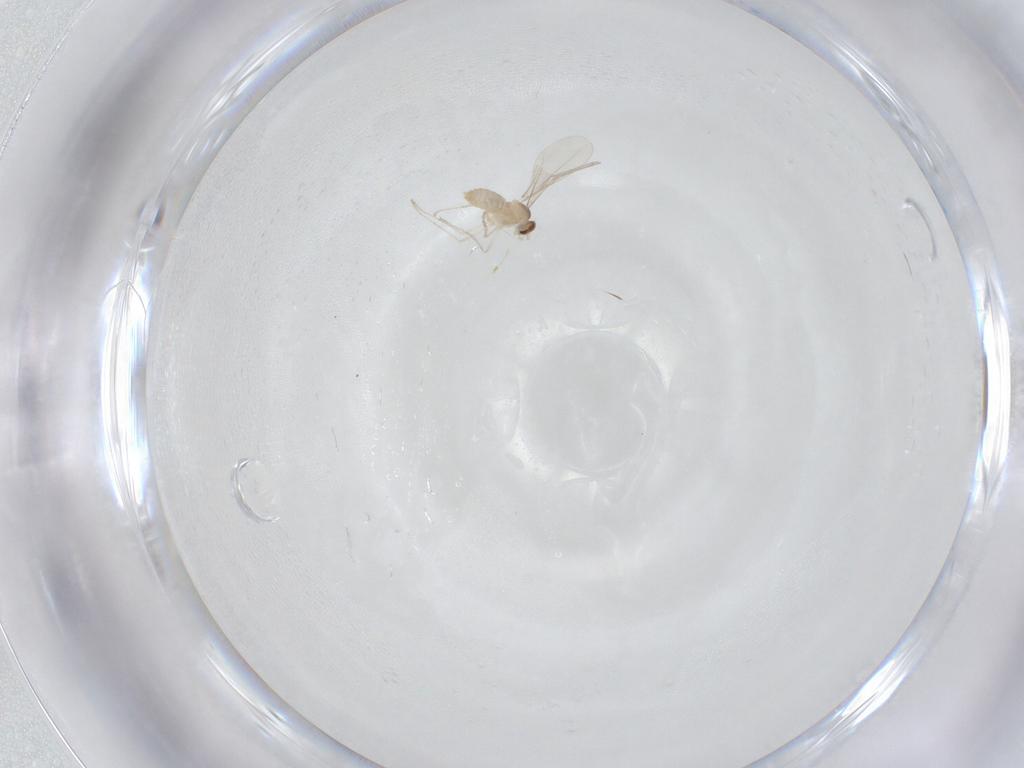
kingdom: Animalia
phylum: Arthropoda
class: Insecta
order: Diptera
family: Cecidomyiidae
